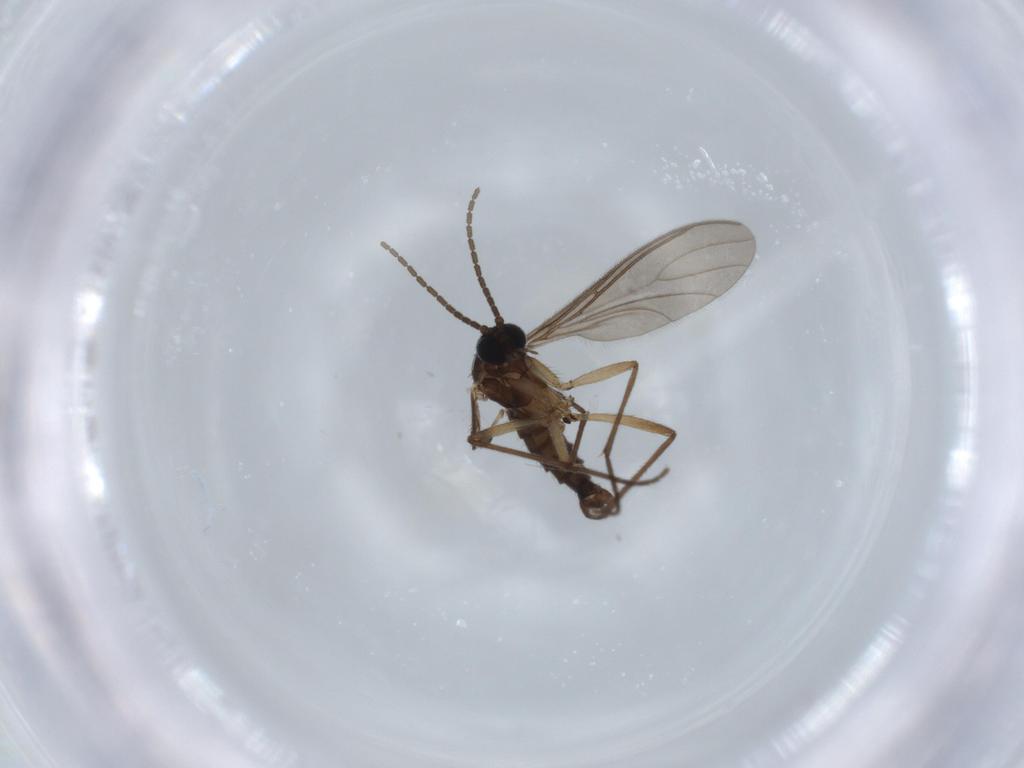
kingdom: Animalia
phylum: Arthropoda
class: Insecta
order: Diptera
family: Sciaridae
